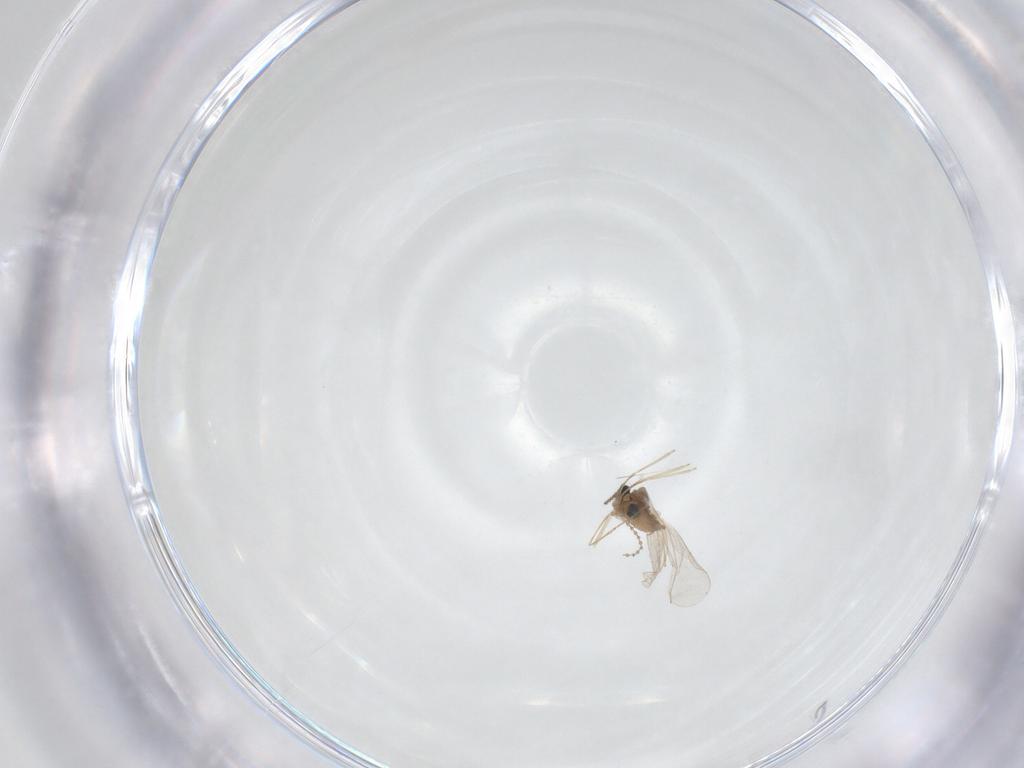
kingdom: Animalia
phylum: Arthropoda
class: Insecta
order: Diptera
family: Cecidomyiidae
